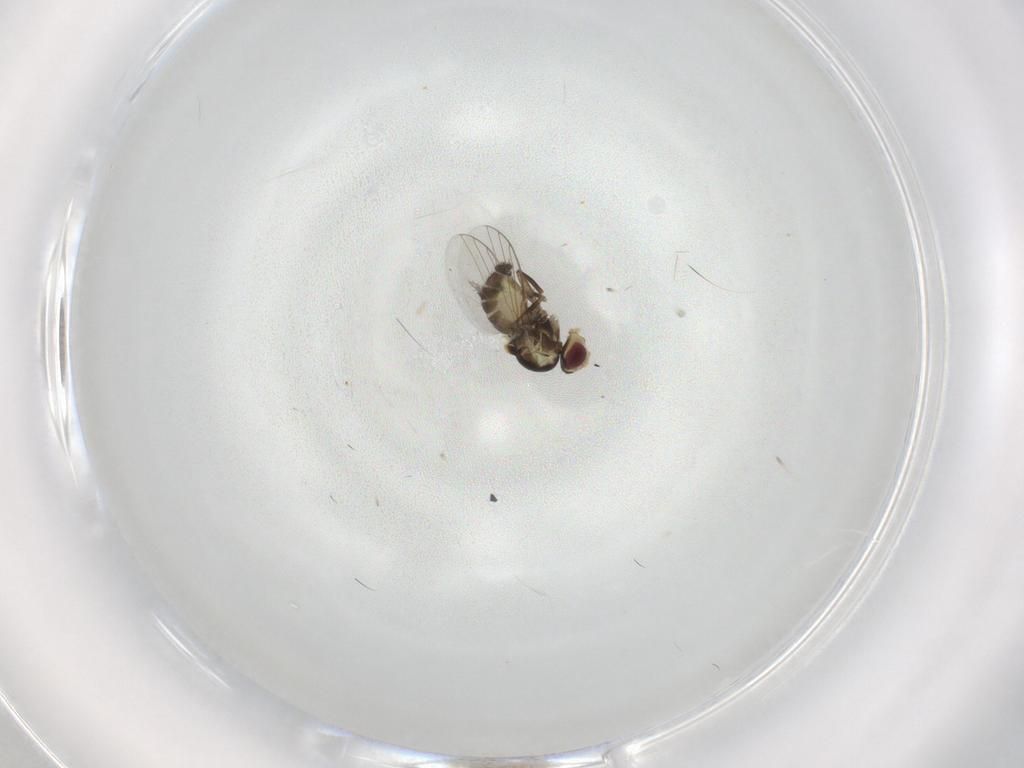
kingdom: Animalia
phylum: Arthropoda
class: Insecta
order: Diptera
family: Agromyzidae
